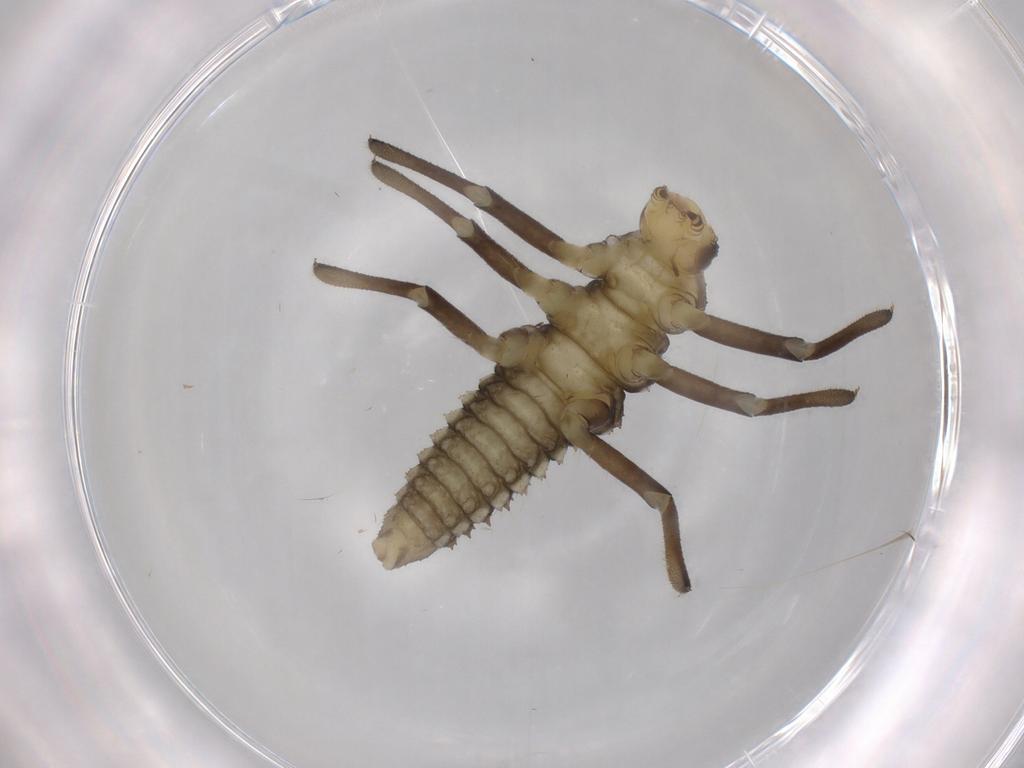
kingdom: Animalia
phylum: Arthropoda
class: Insecta
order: Coleoptera
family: Coccinellidae
